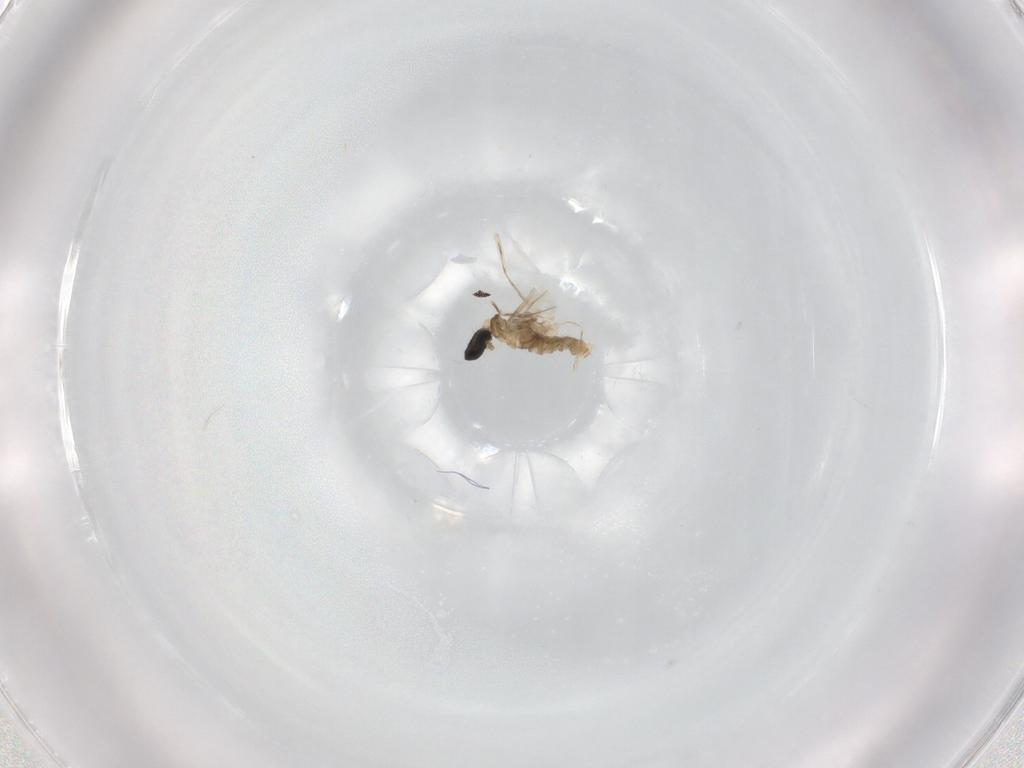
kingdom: Animalia
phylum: Arthropoda
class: Insecta
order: Diptera
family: Cecidomyiidae
